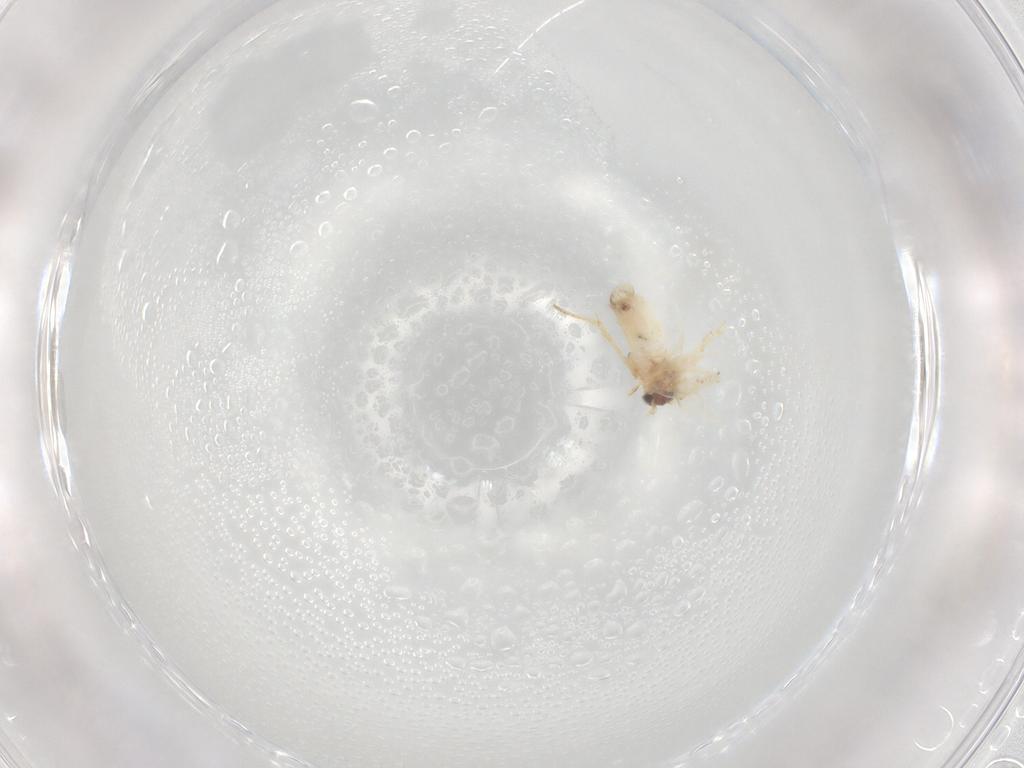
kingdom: Animalia
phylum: Arthropoda
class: Insecta
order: Lepidoptera
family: Nepticulidae
